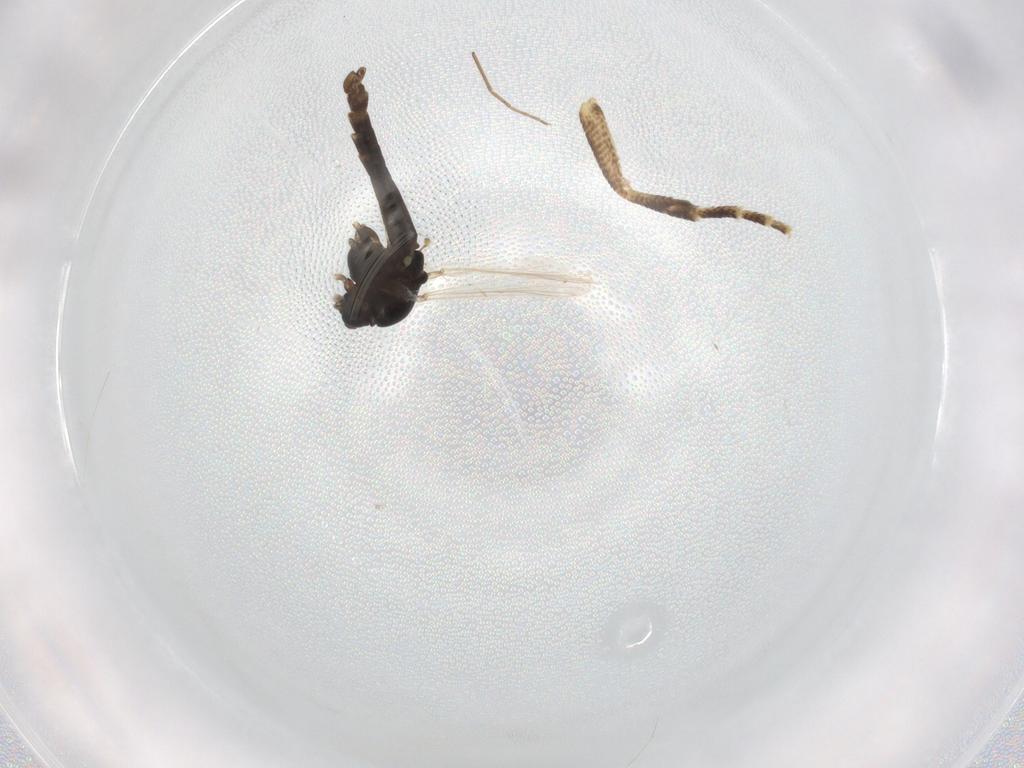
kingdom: Animalia
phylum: Arthropoda
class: Insecta
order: Diptera
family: Chironomidae
